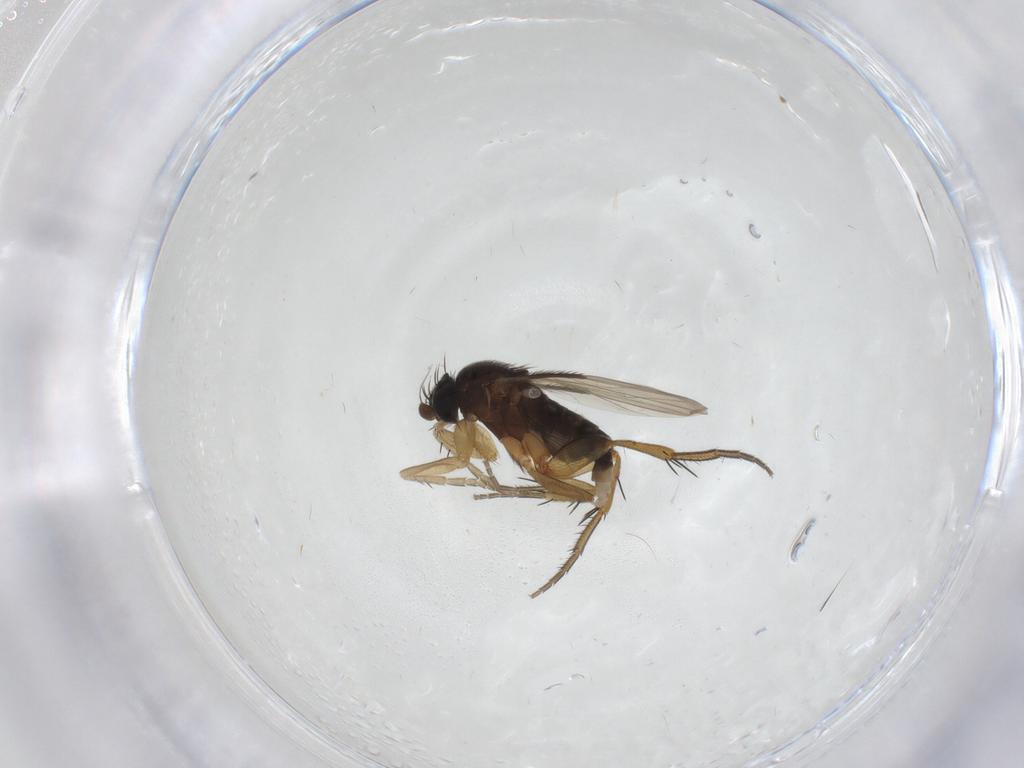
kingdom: Animalia
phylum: Arthropoda
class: Insecta
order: Diptera
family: Phoridae
